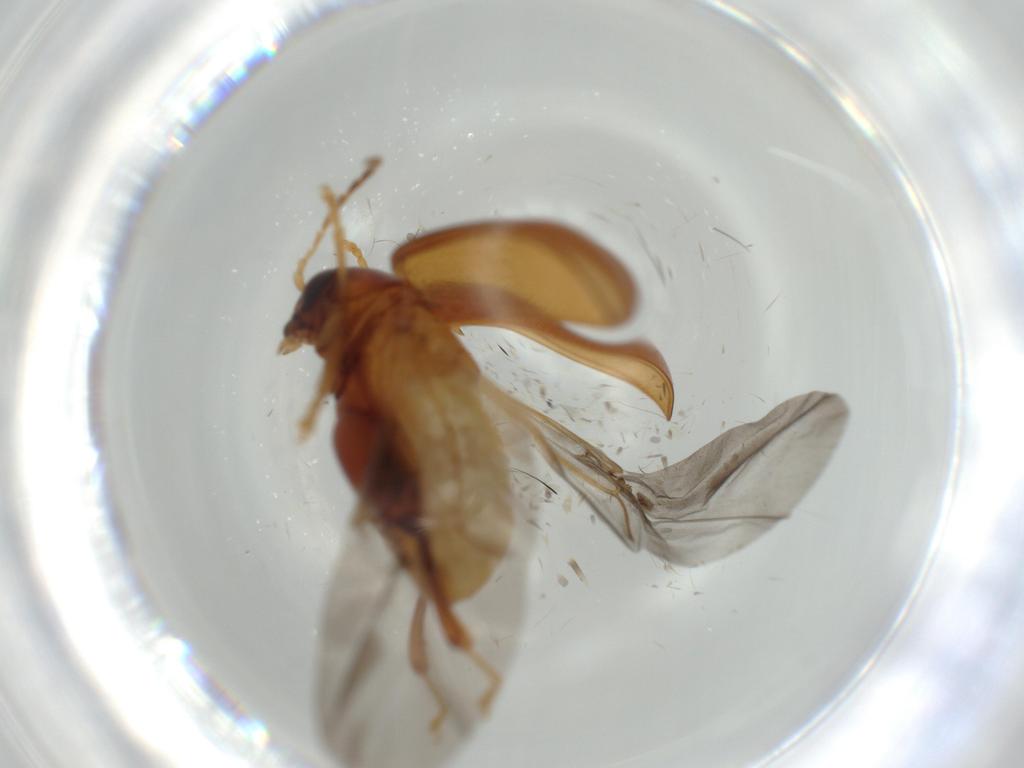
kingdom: Animalia
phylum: Arthropoda
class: Insecta
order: Coleoptera
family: Chrysomelidae
